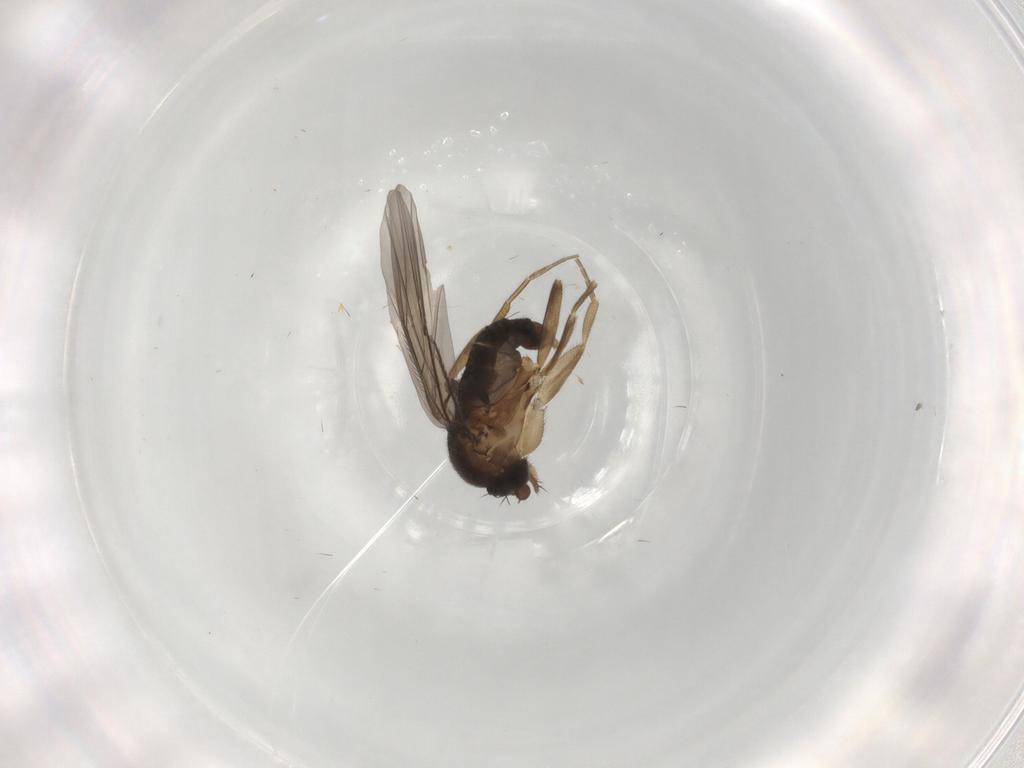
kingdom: Animalia
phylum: Arthropoda
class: Insecta
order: Diptera
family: Phoridae
